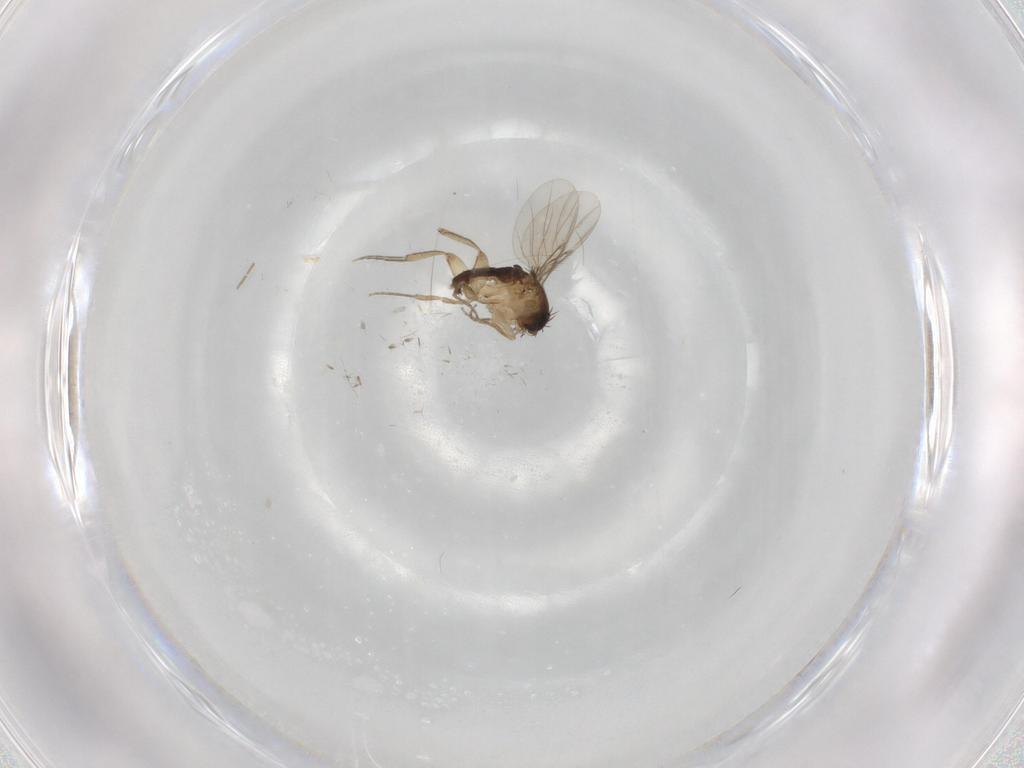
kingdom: Animalia
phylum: Arthropoda
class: Insecta
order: Diptera
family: Phoridae
